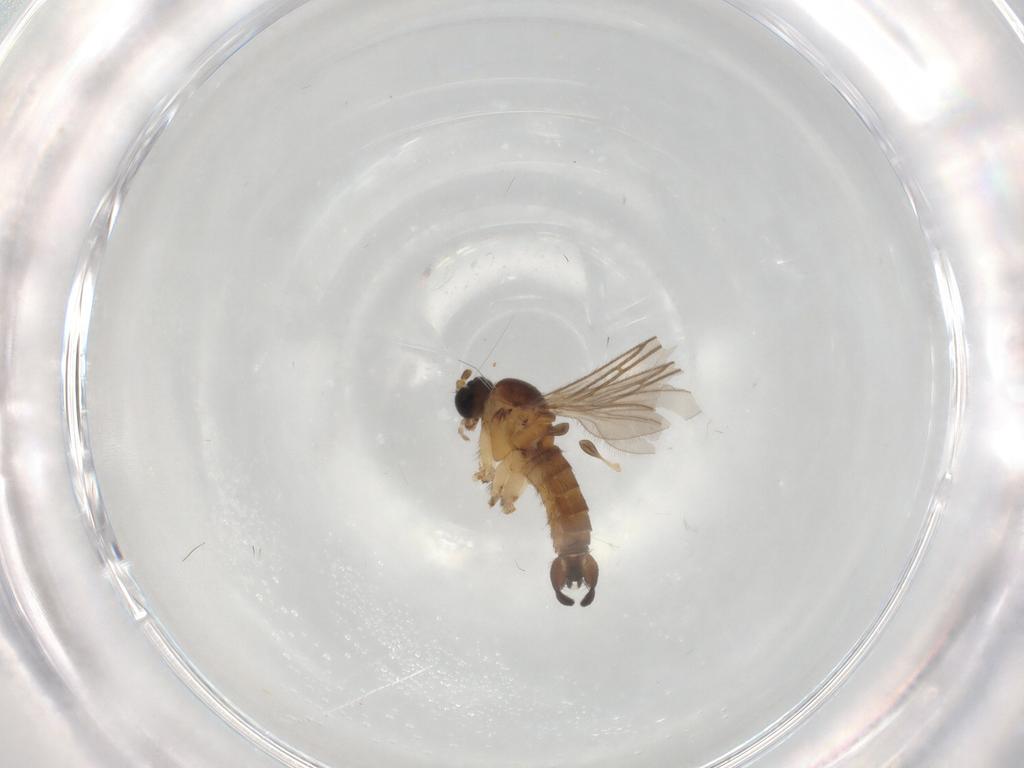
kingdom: Animalia
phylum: Arthropoda
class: Insecta
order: Diptera
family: Sciaridae
